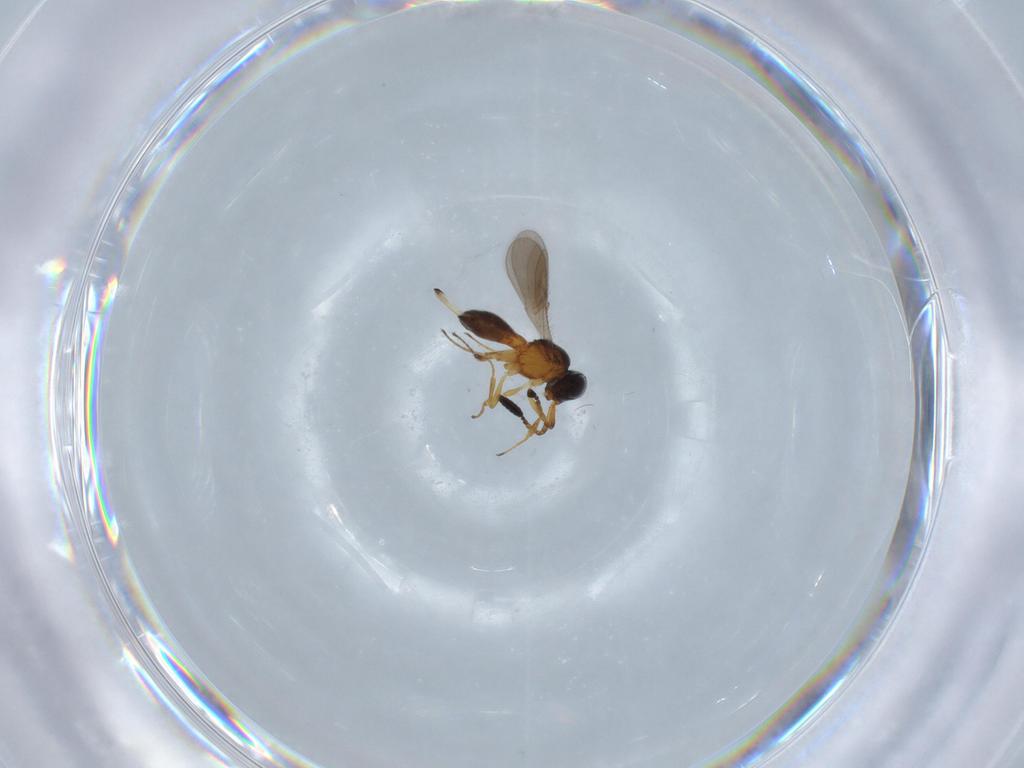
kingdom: Animalia
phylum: Arthropoda
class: Insecta
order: Hymenoptera
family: Scelionidae
